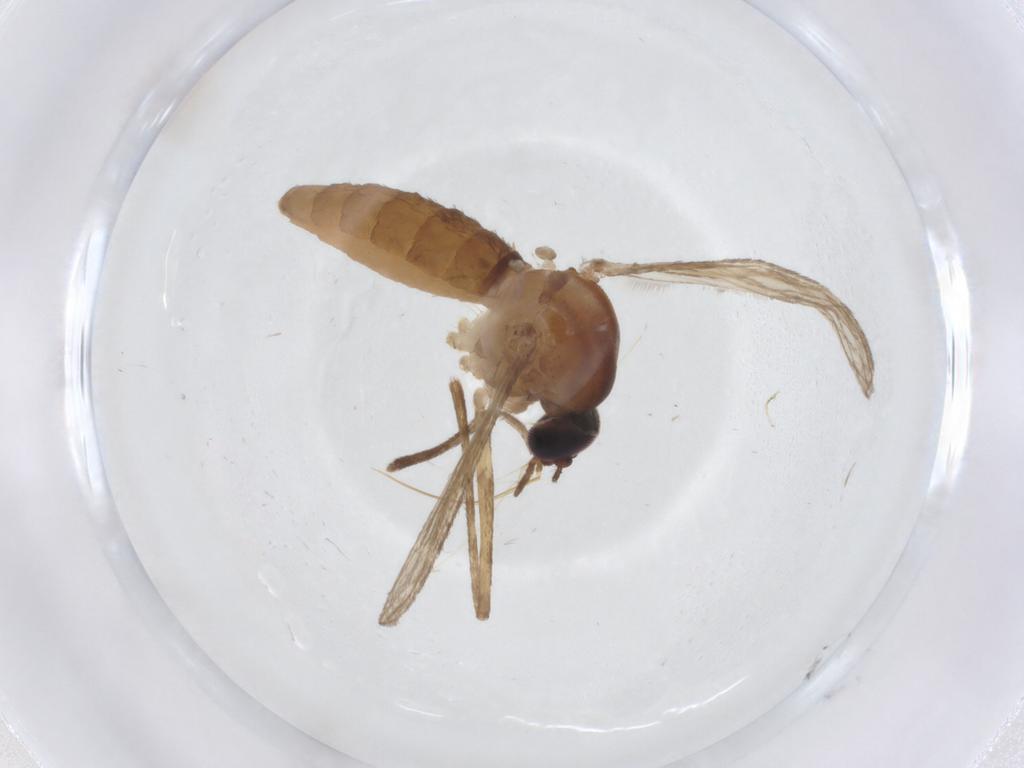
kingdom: Animalia
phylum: Arthropoda
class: Insecta
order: Diptera
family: Culicidae
